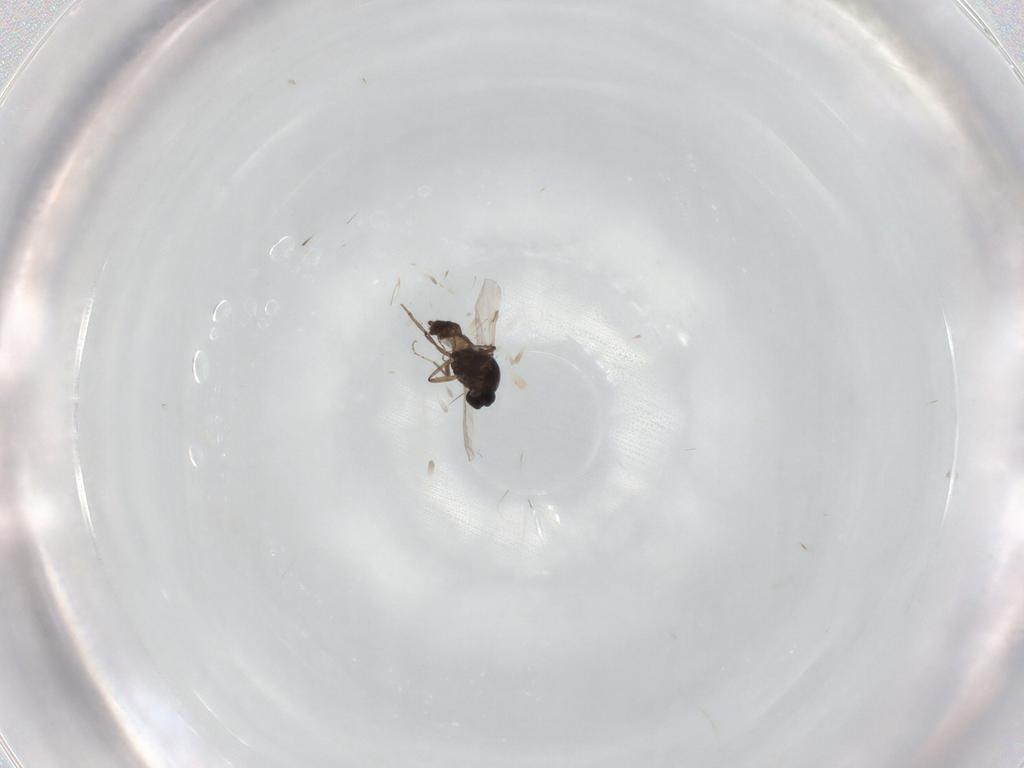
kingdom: Animalia
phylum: Arthropoda
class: Insecta
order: Diptera
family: Ceratopogonidae
